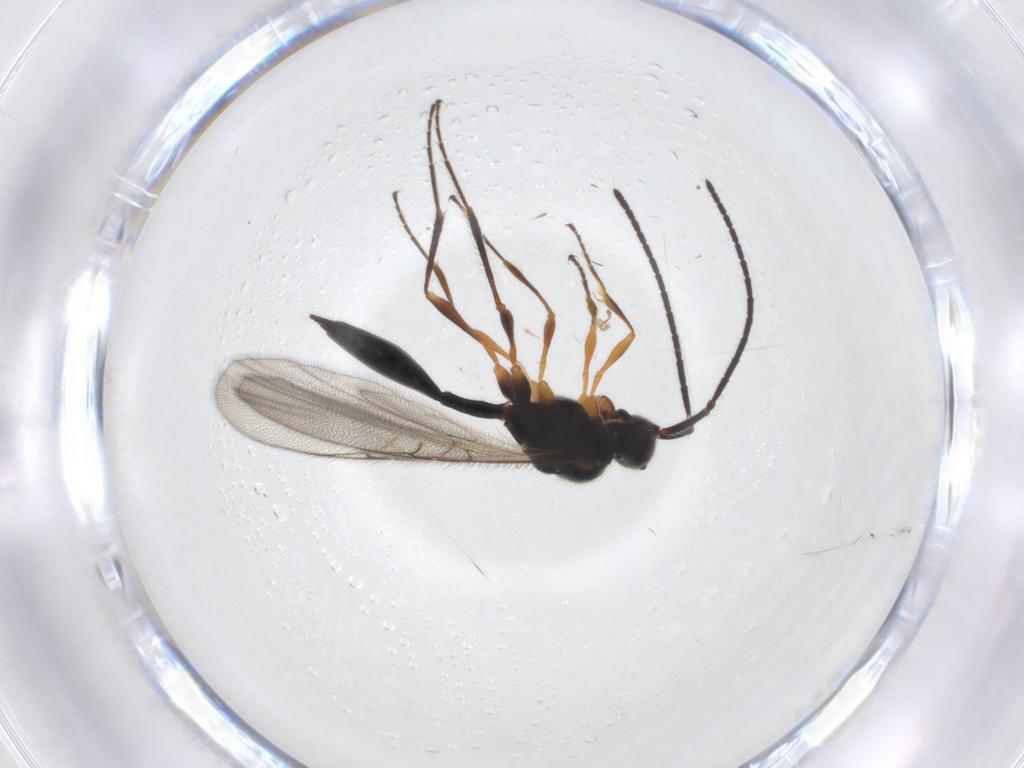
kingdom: Animalia
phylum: Arthropoda
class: Insecta
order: Hymenoptera
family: Diapriidae
